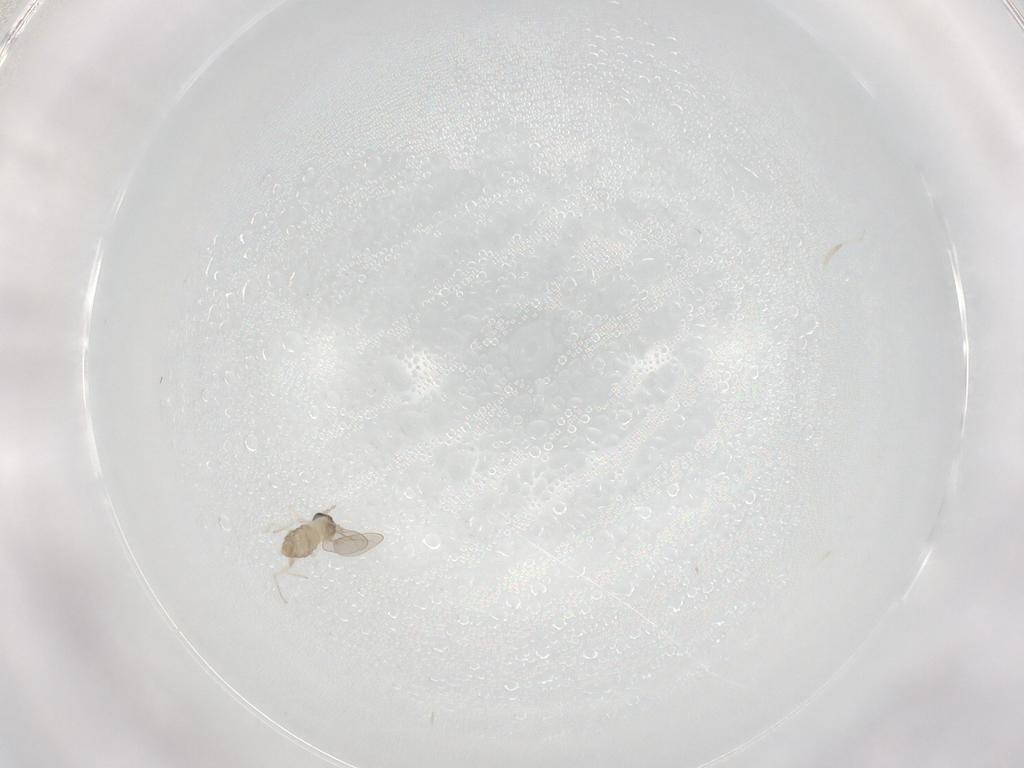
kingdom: Animalia
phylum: Arthropoda
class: Insecta
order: Diptera
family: Cecidomyiidae
